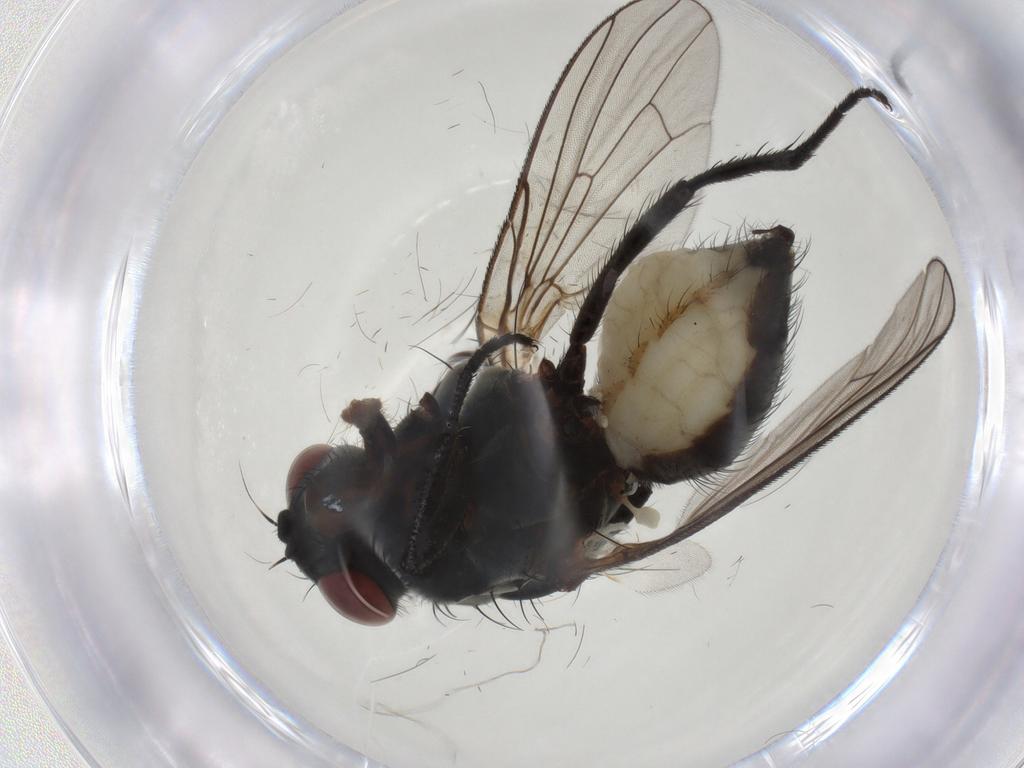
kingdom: Animalia
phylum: Arthropoda
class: Insecta
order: Diptera
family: Anthomyiidae
